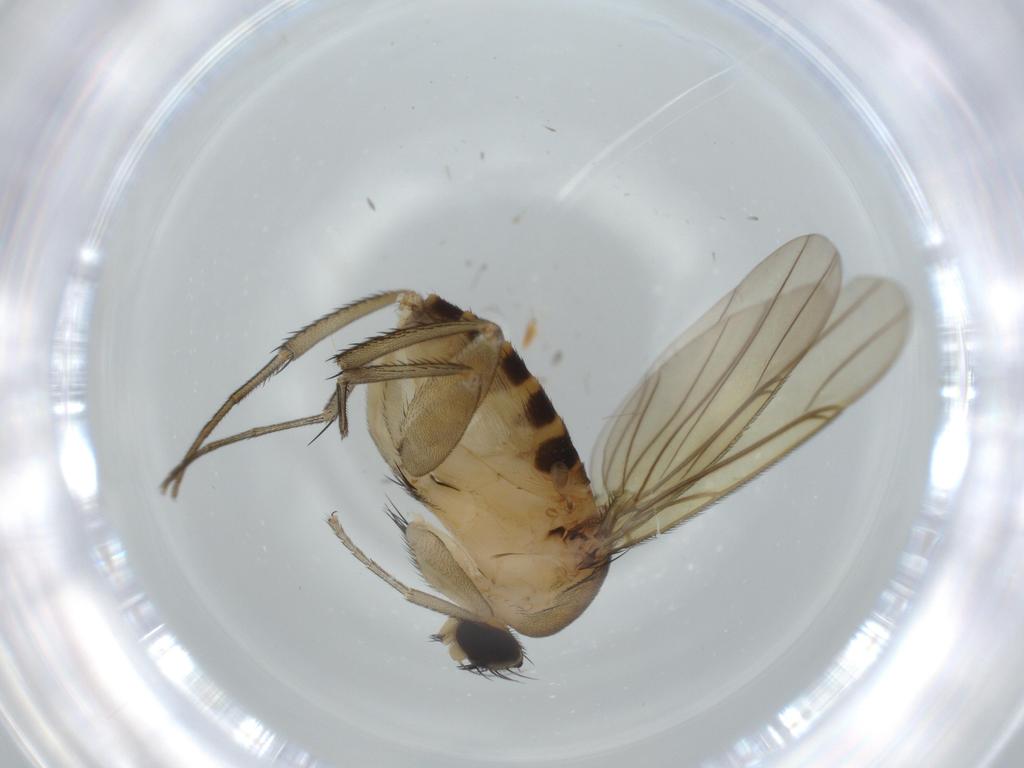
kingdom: Animalia
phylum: Arthropoda
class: Insecta
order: Diptera
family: Phoridae
